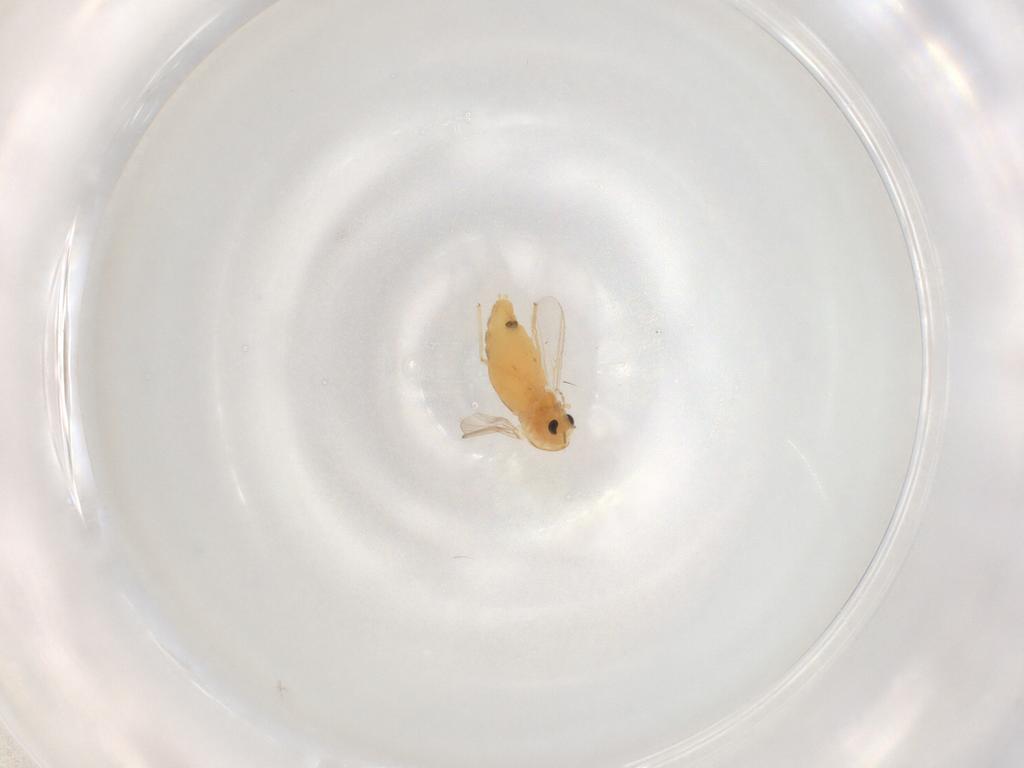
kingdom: Animalia
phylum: Arthropoda
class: Insecta
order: Diptera
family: Chironomidae
